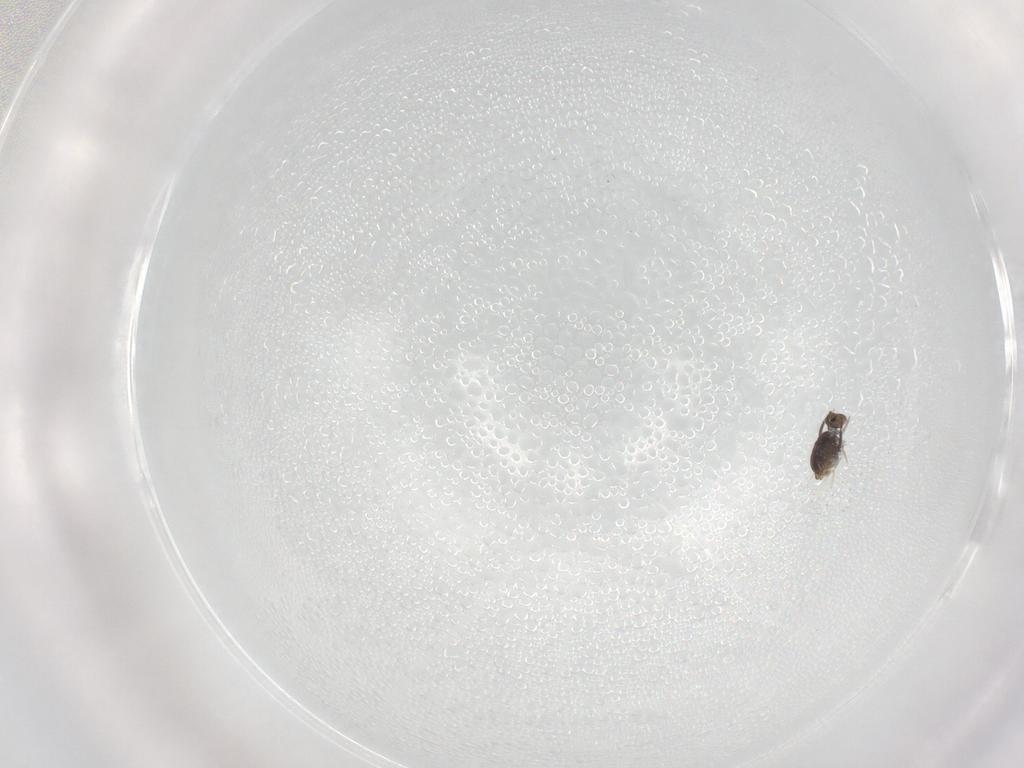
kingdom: Animalia
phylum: Arthropoda
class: Collembola
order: Symphypleona
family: Katiannidae
